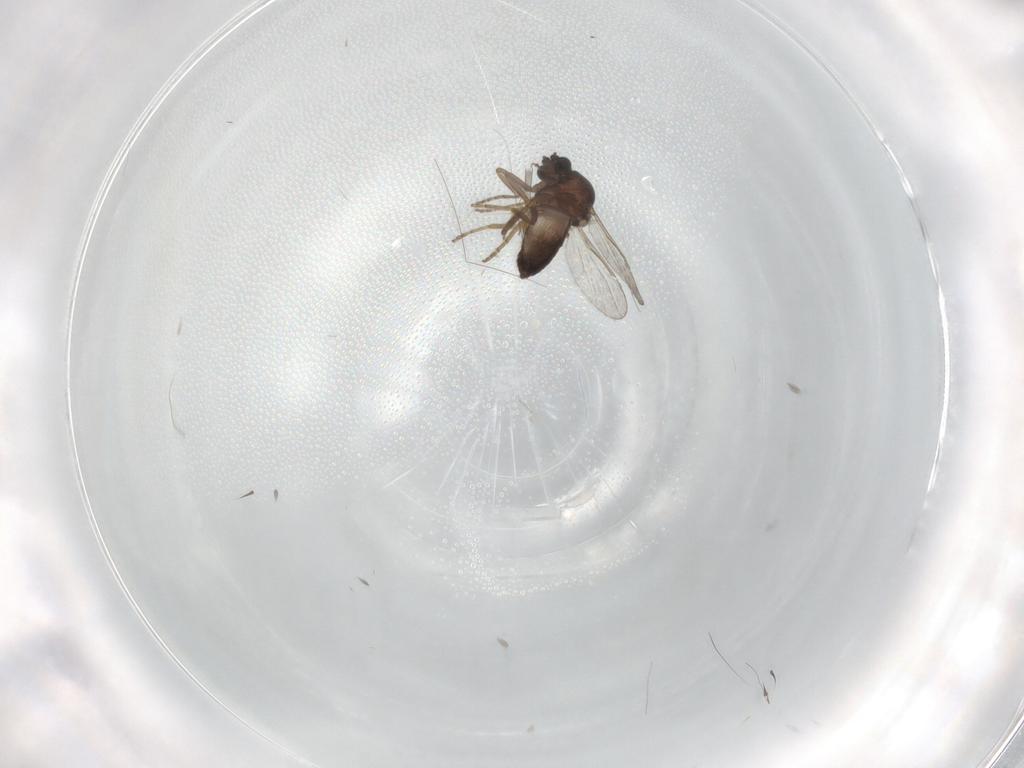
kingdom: Animalia
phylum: Arthropoda
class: Insecta
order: Diptera
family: Ceratopogonidae
